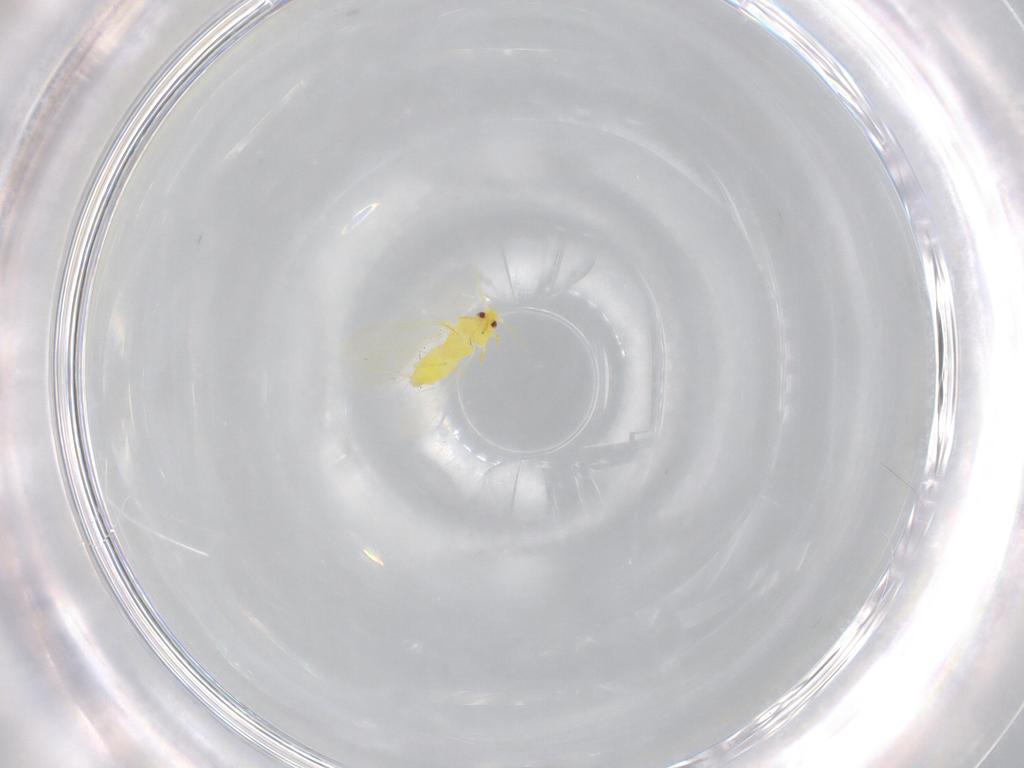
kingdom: Animalia
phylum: Arthropoda
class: Insecta
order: Hemiptera
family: Aleyrodidae
